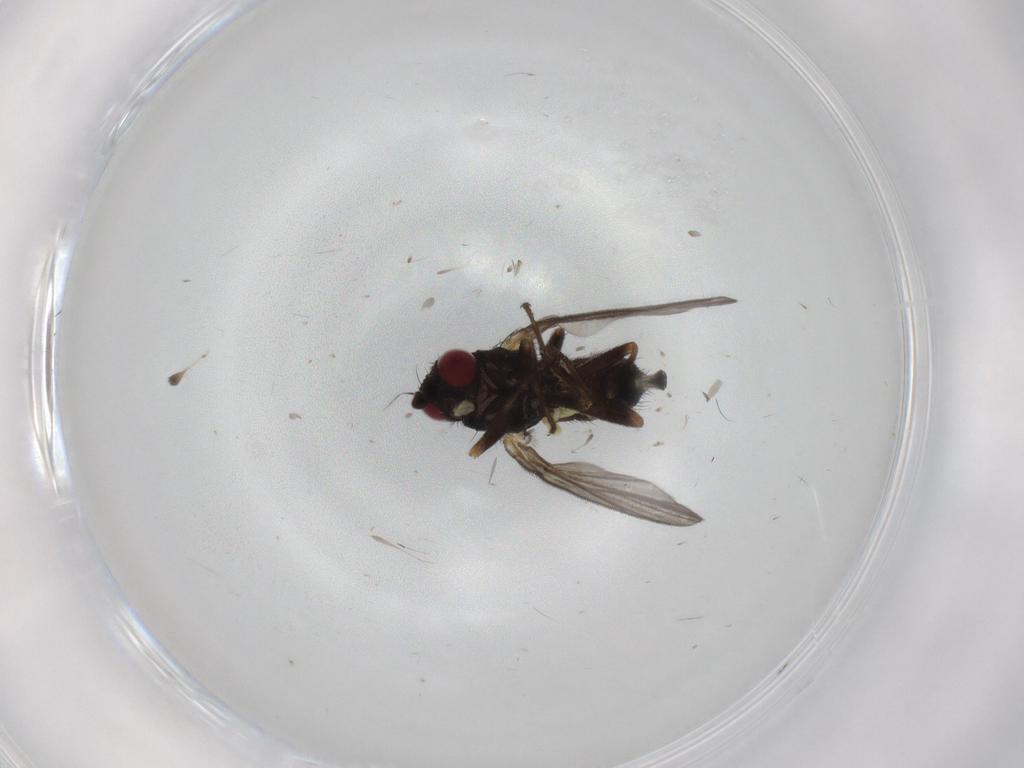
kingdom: Animalia
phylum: Arthropoda
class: Insecta
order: Diptera
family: Agromyzidae
